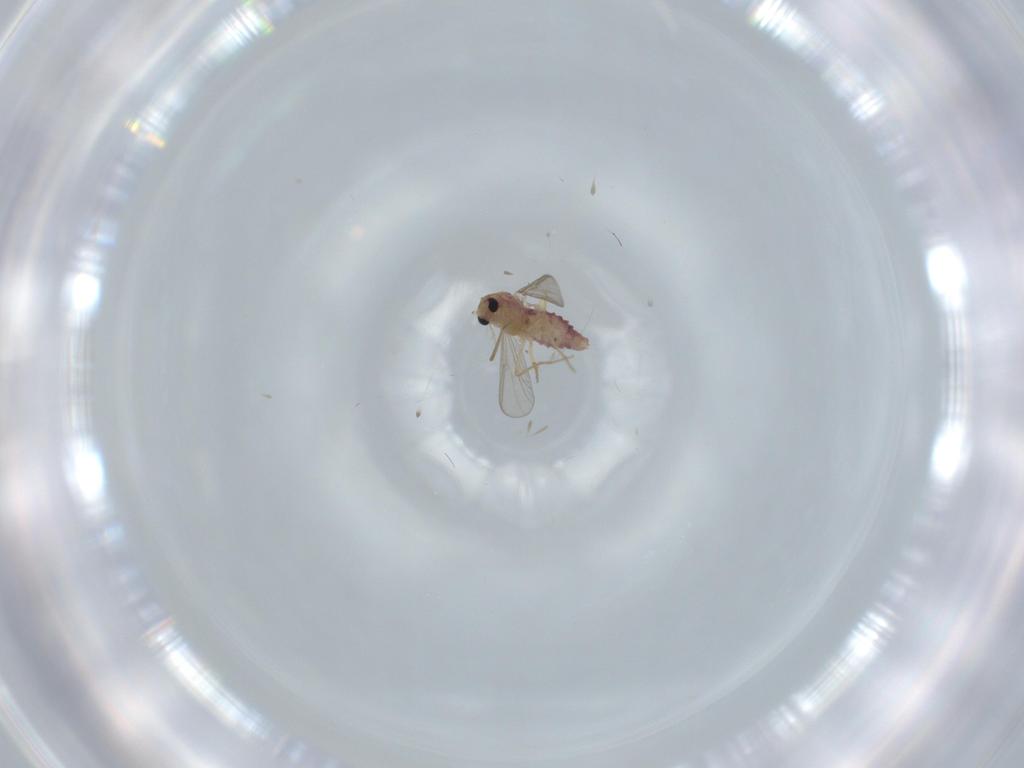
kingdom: Animalia
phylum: Arthropoda
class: Insecta
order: Diptera
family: Chironomidae
